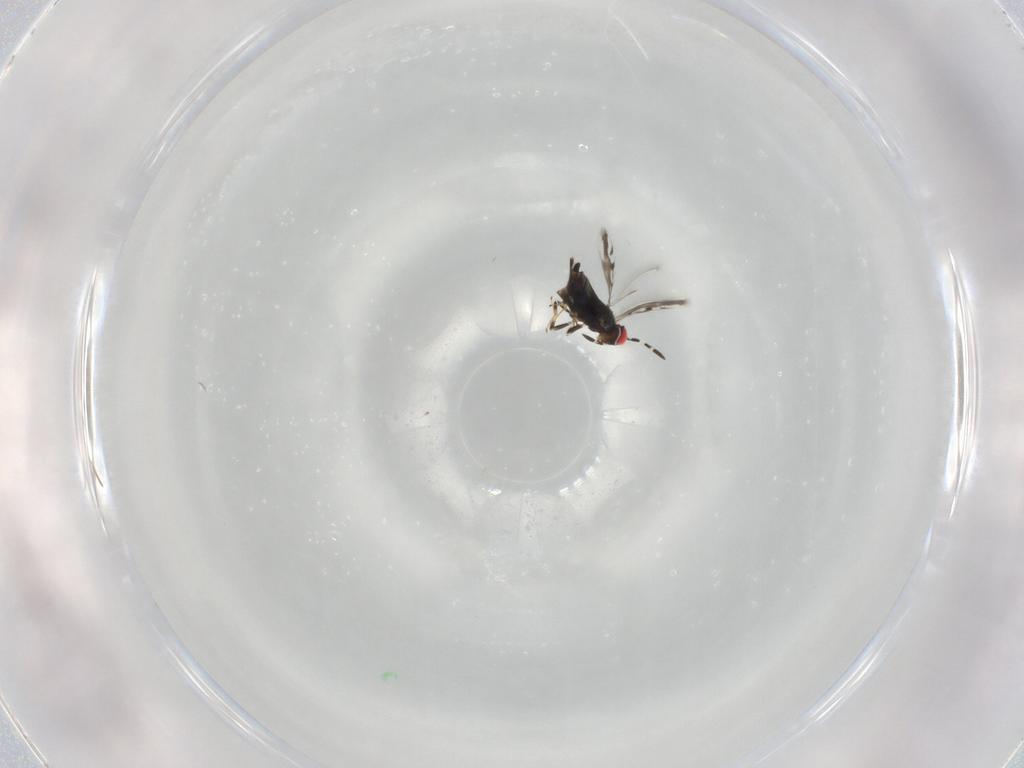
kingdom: Animalia
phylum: Arthropoda
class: Insecta
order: Hymenoptera
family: Azotidae
